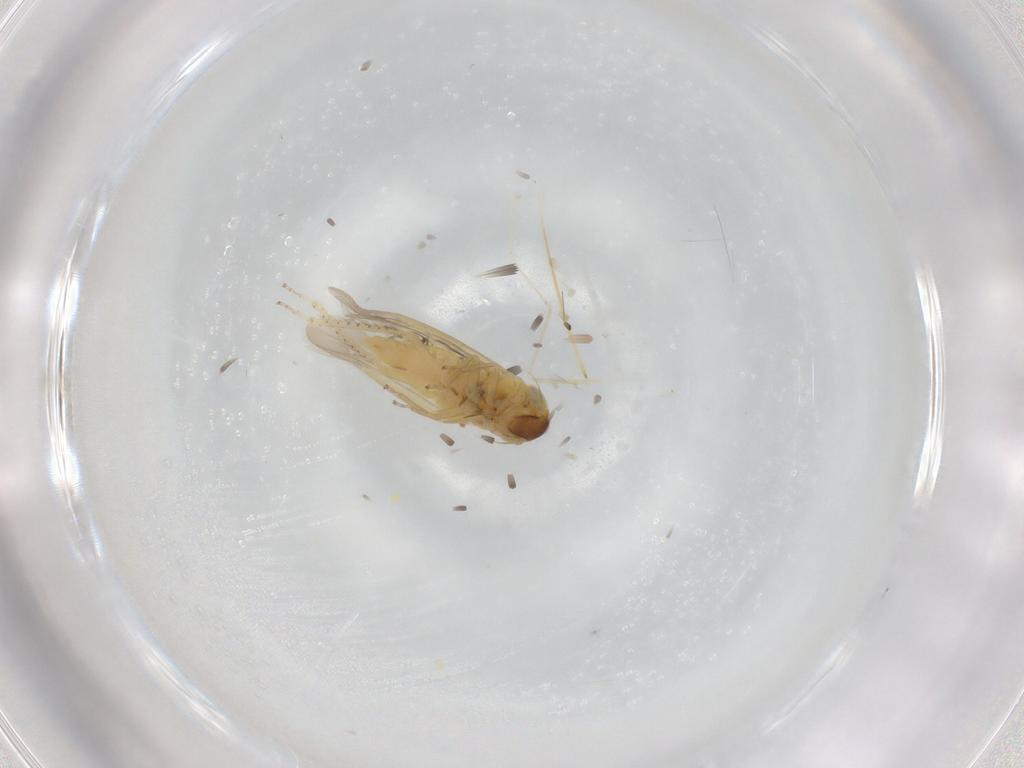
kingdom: Animalia
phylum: Arthropoda
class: Insecta
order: Hemiptera
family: Cicadellidae
